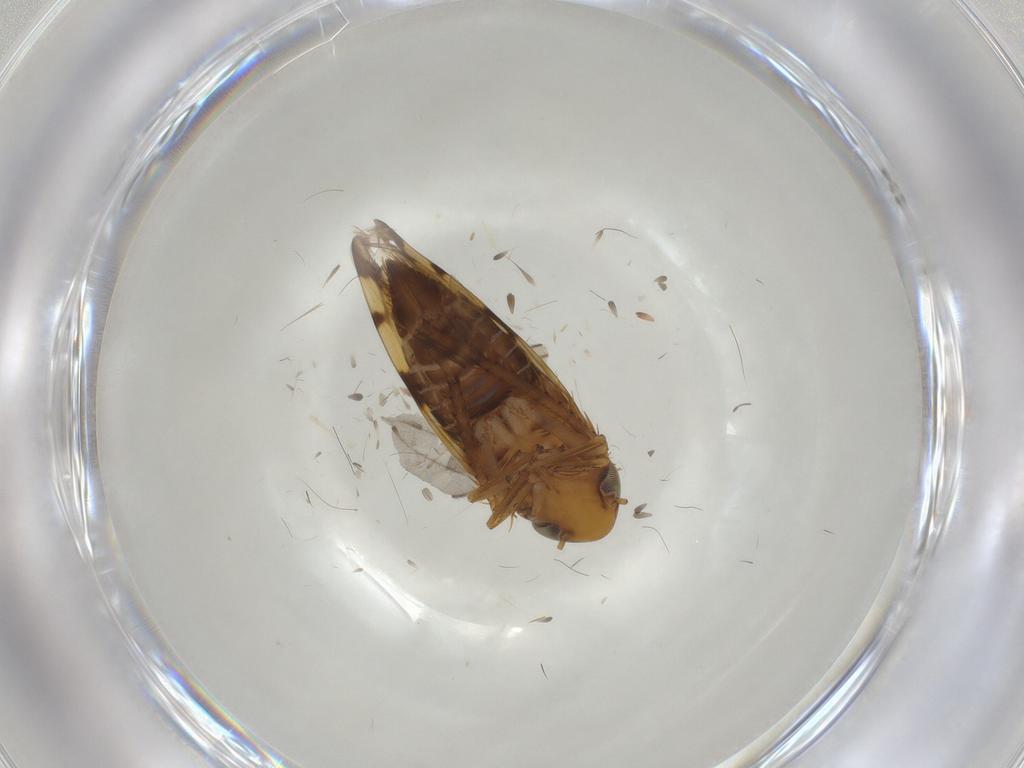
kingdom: Animalia
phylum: Arthropoda
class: Insecta
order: Hemiptera
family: Cicadellidae
